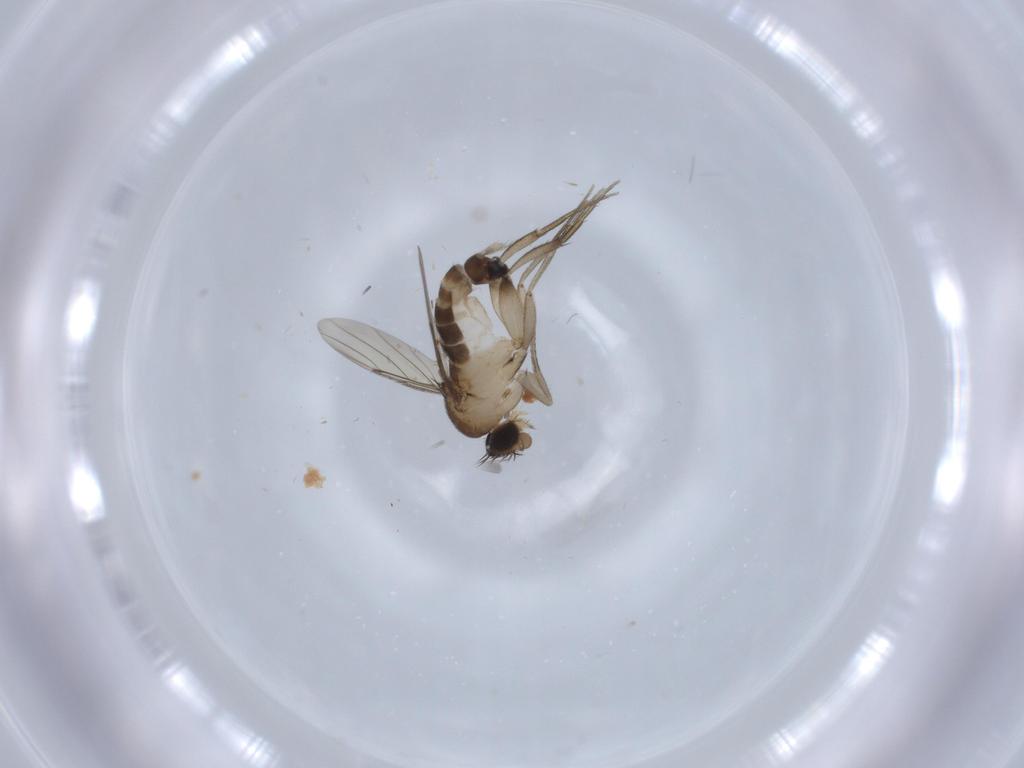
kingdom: Animalia
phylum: Arthropoda
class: Insecta
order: Diptera
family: Phoridae
